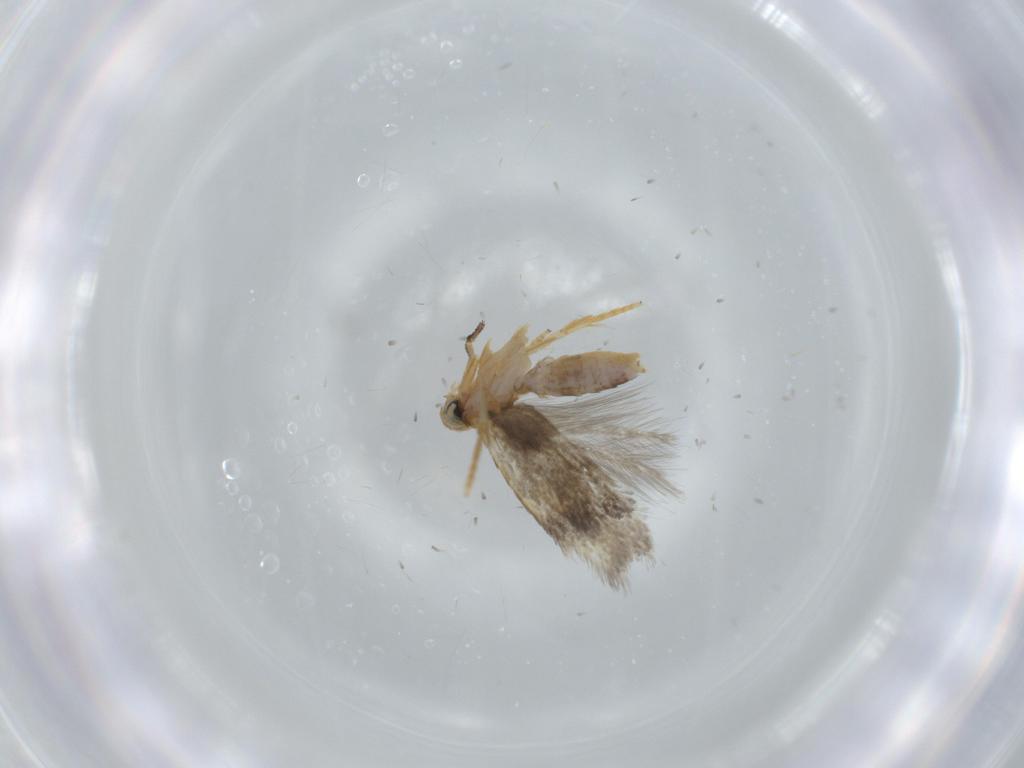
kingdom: Animalia
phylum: Arthropoda
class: Insecta
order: Lepidoptera
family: Nepticulidae
